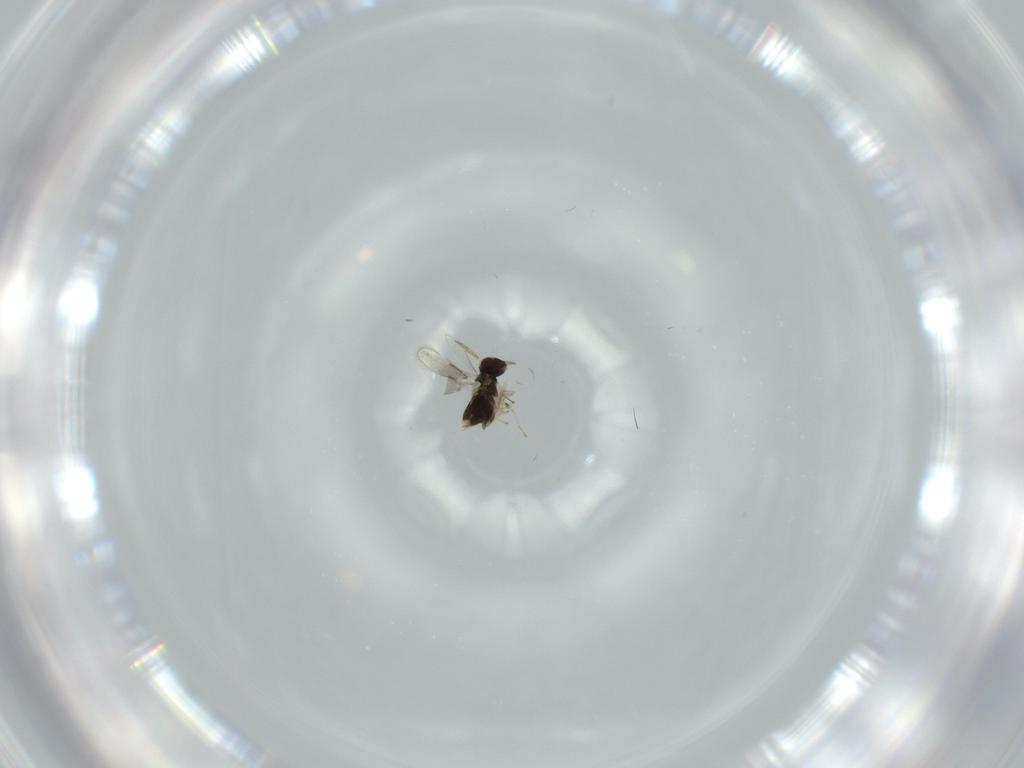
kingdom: Animalia
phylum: Arthropoda
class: Insecta
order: Hymenoptera
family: Aphelinidae
